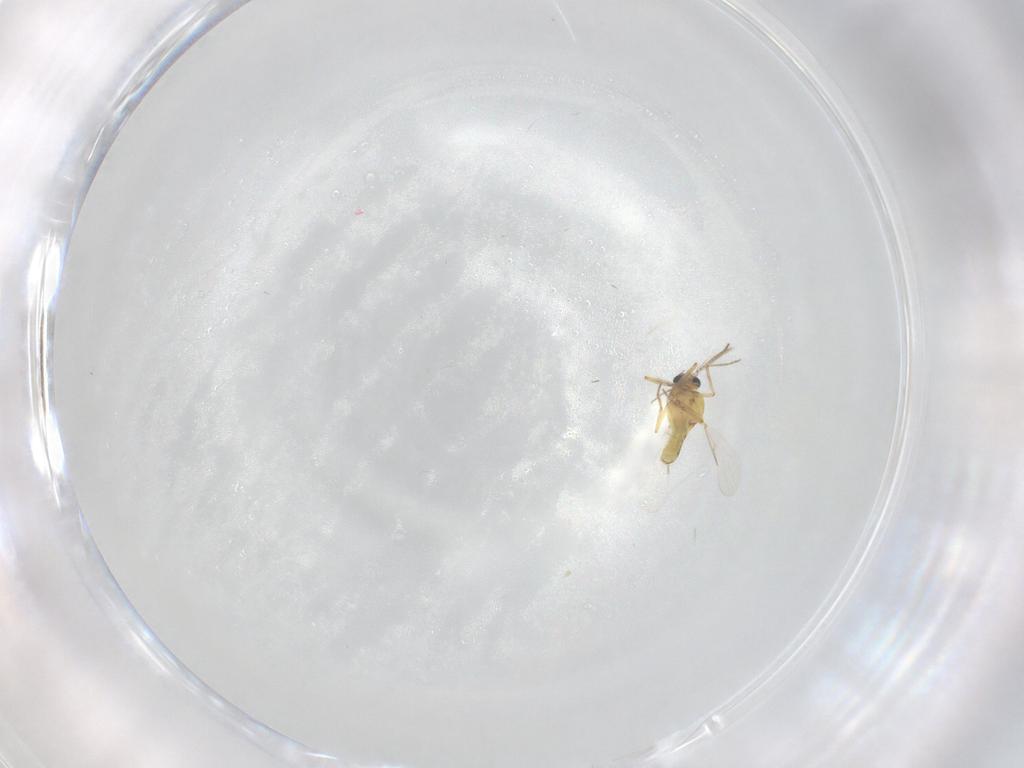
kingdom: Animalia
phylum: Arthropoda
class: Insecta
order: Diptera
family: Ceratopogonidae
